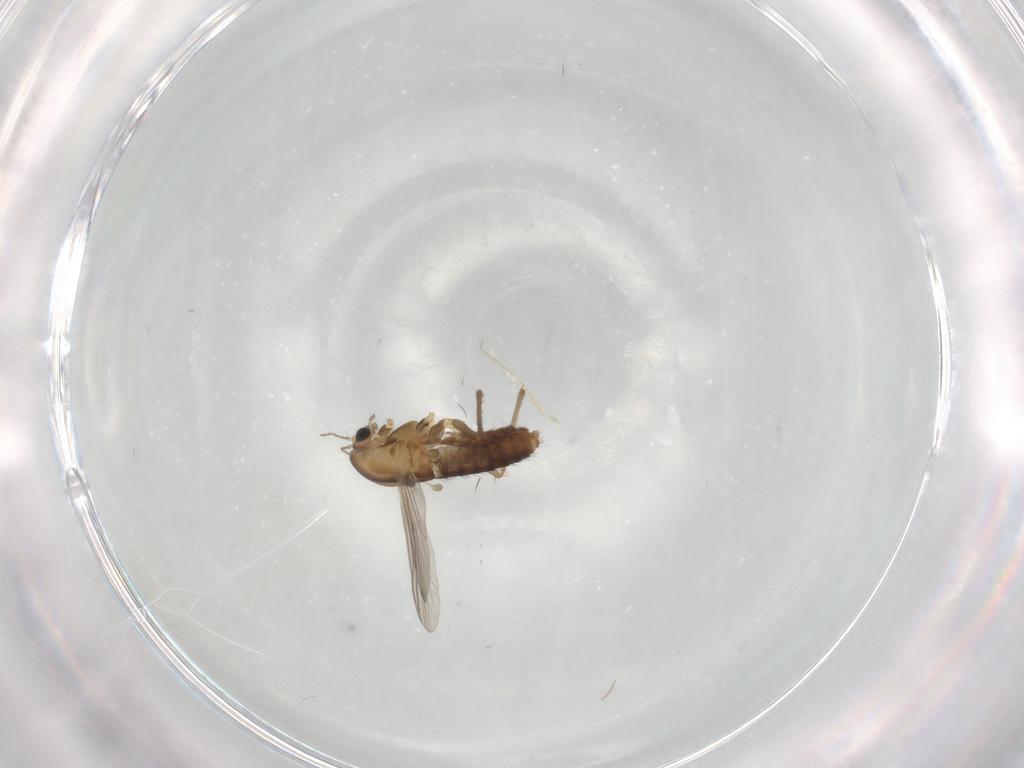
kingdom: Animalia
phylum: Arthropoda
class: Insecta
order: Diptera
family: Chironomidae
